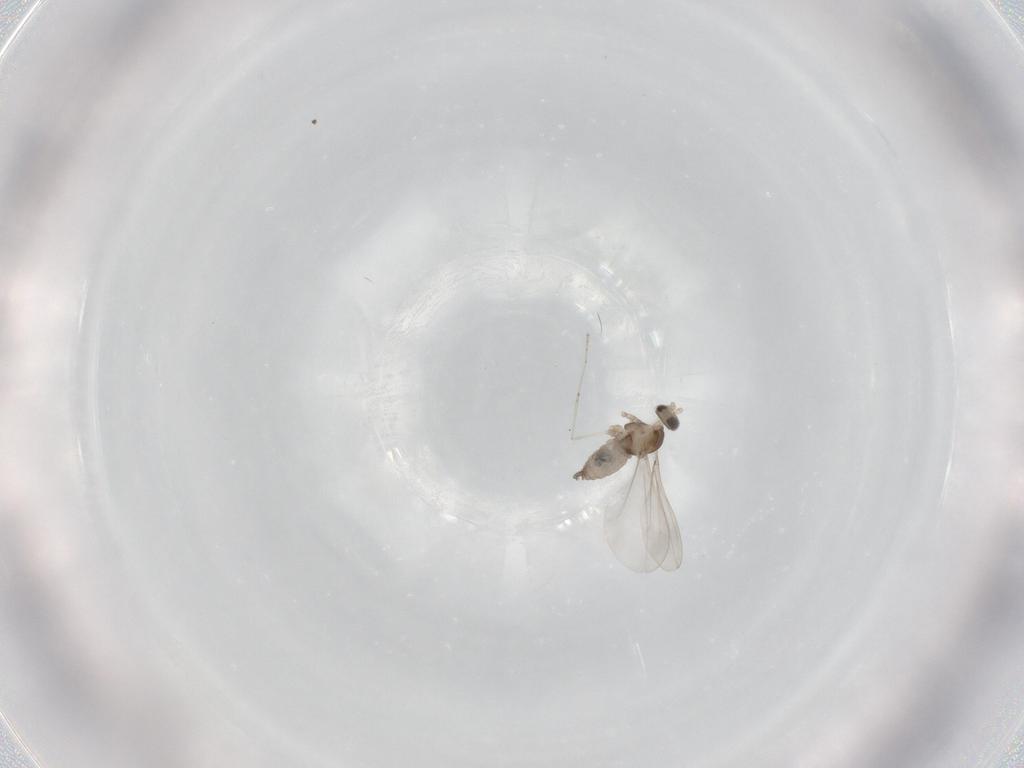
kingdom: Animalia
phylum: Arthropoda
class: Insecta
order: Diptera
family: Cecidomyiidae
